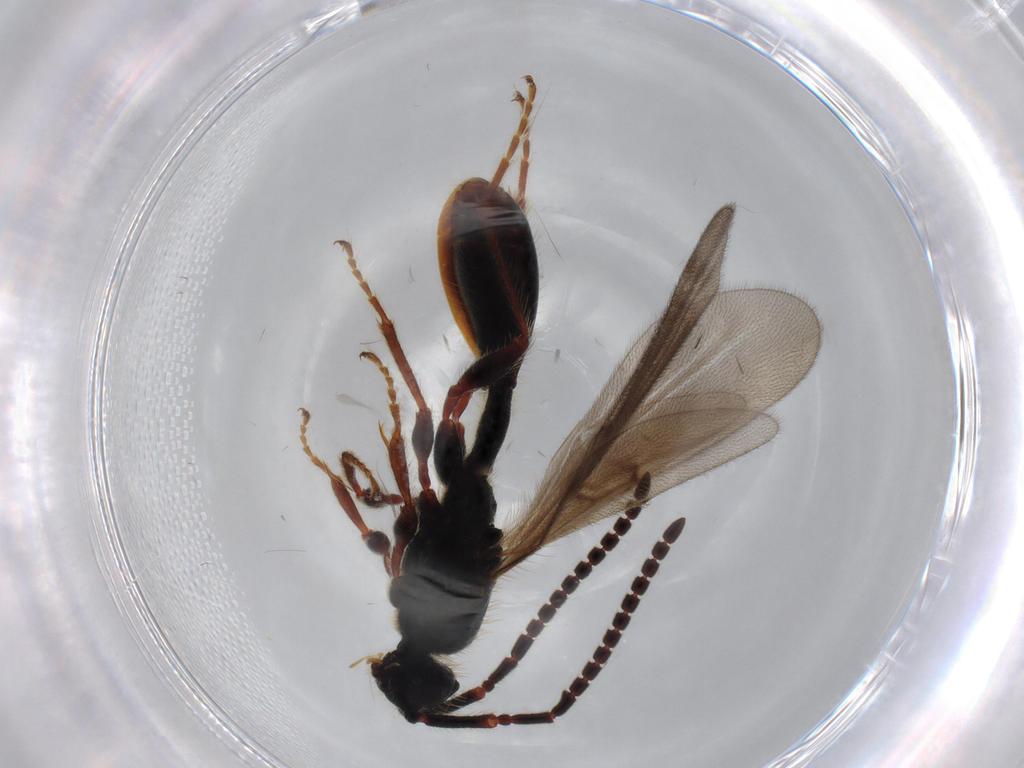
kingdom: Animalia
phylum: Arthropoda
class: Insecta
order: Hymenoptera
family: Diapriidae
